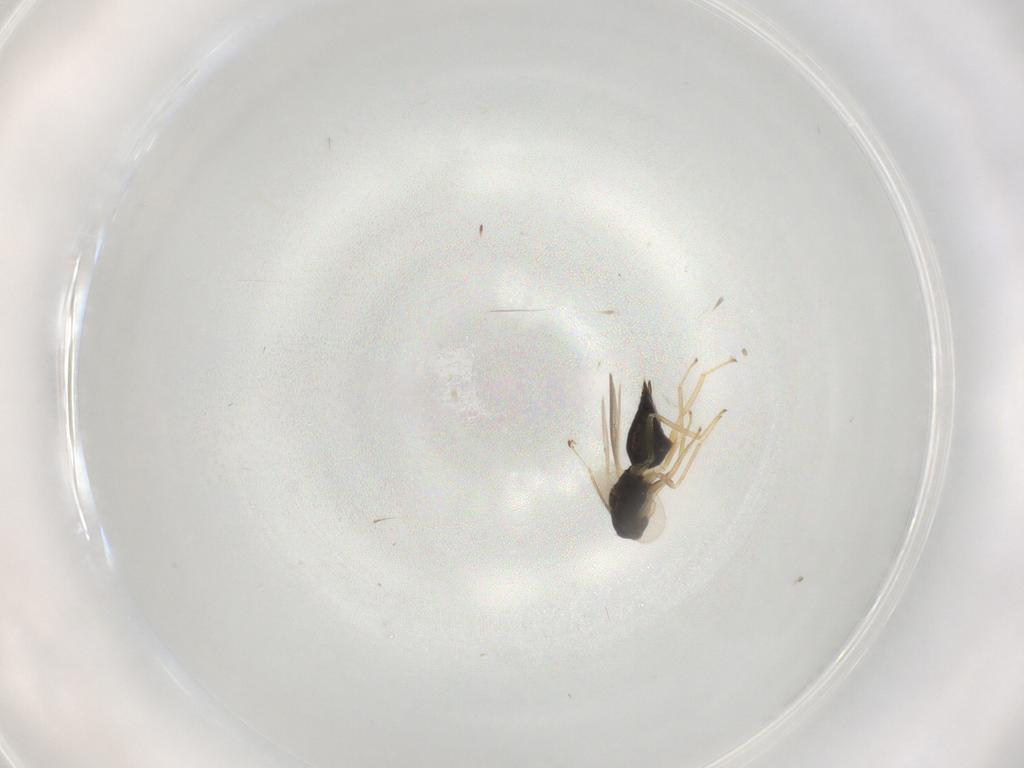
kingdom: Animalia
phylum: Arthropoda
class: Insecta
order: Hymenoptera
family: Eulophidae
